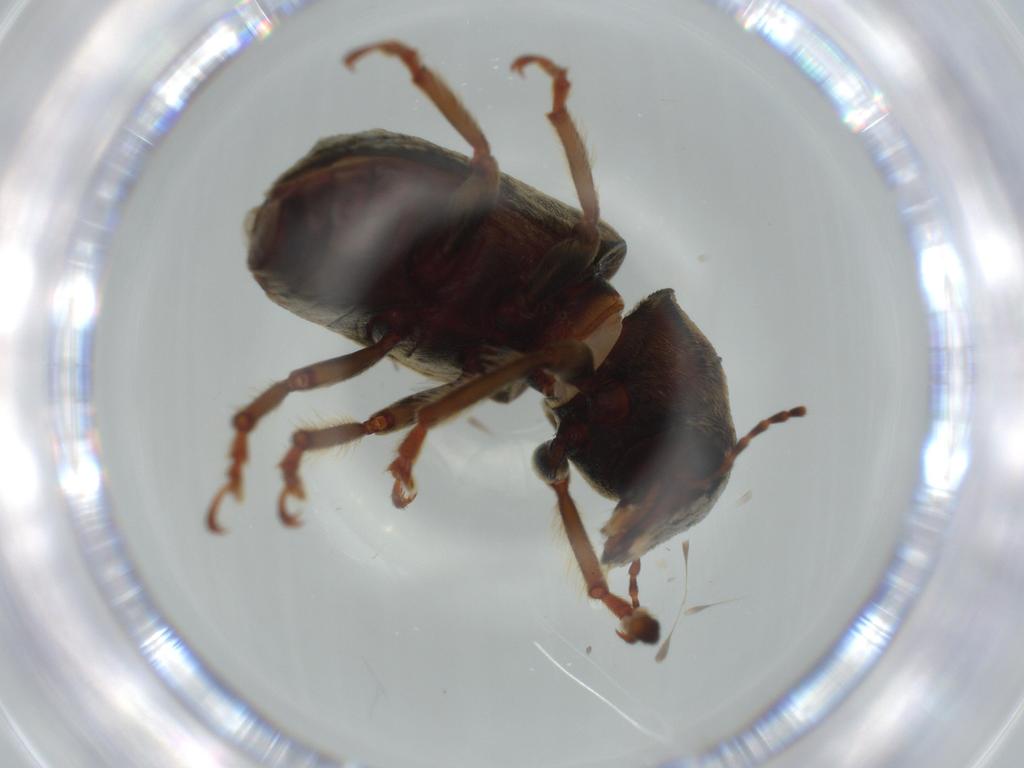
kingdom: Animalia
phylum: Arthropoda
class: Insecta
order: Coleoptera
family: Chrysomelidae
